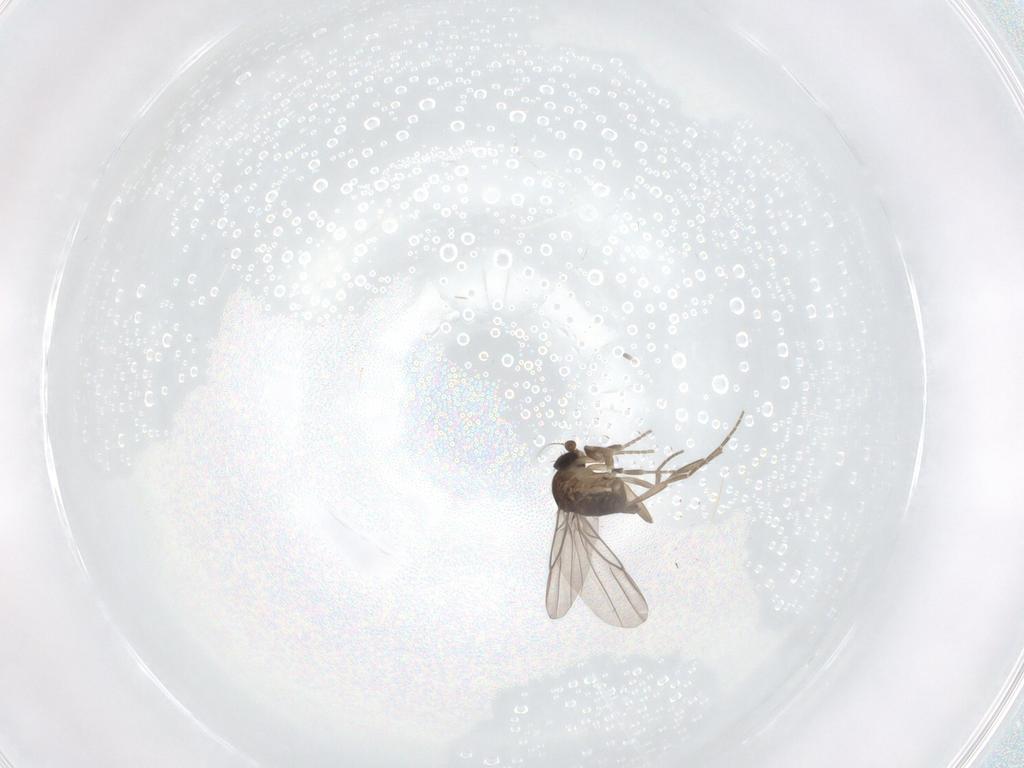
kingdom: Animalia
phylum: Arthropoda
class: Insecta
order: Diptera
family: Limoniidae
